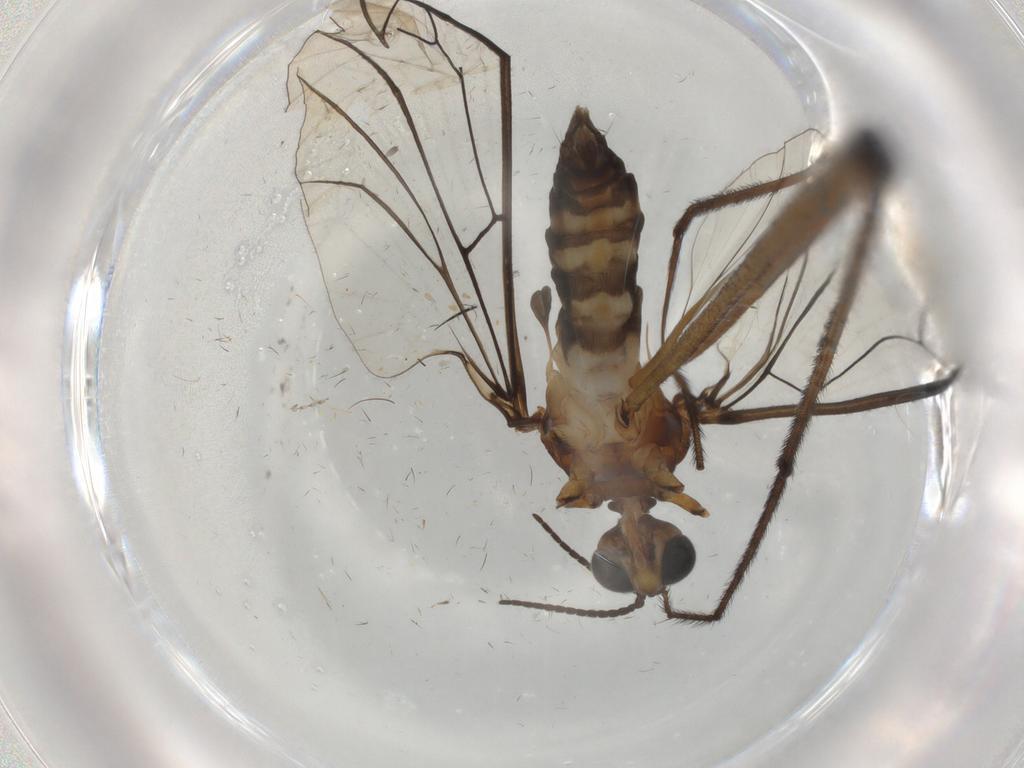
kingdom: Animalia
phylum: Arthropoda
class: Insecta
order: Diptera
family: Blephariceridae
